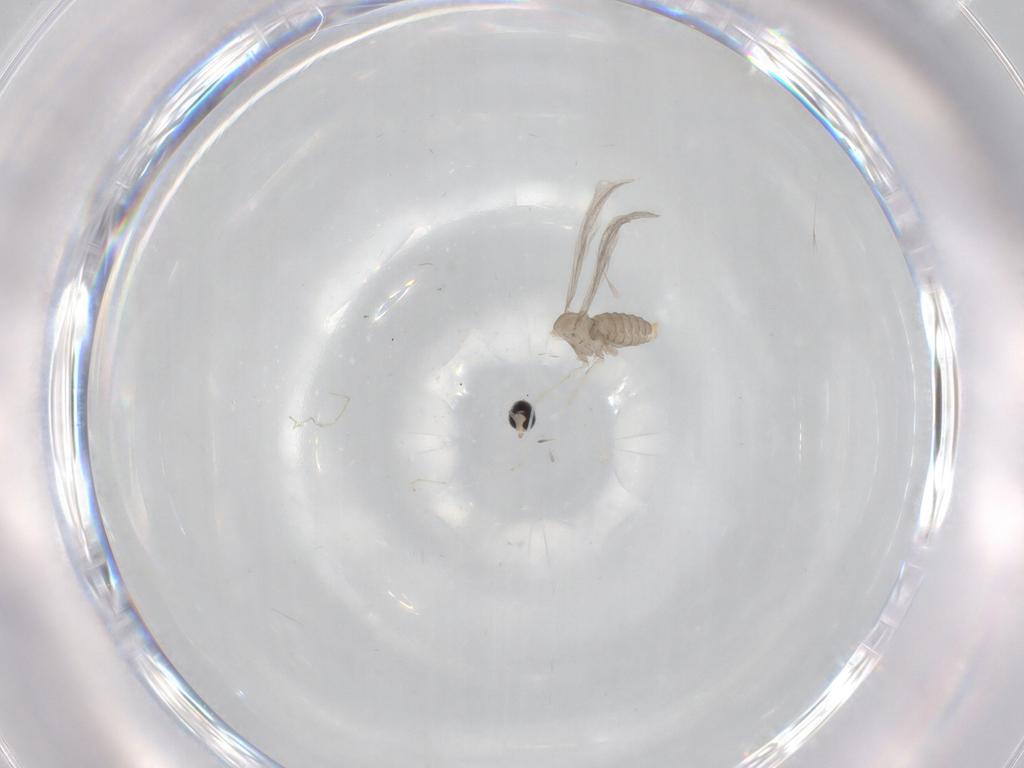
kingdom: Animalia
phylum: Arthropoda
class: Insecta
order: Diptera
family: Cecidomyiidae
